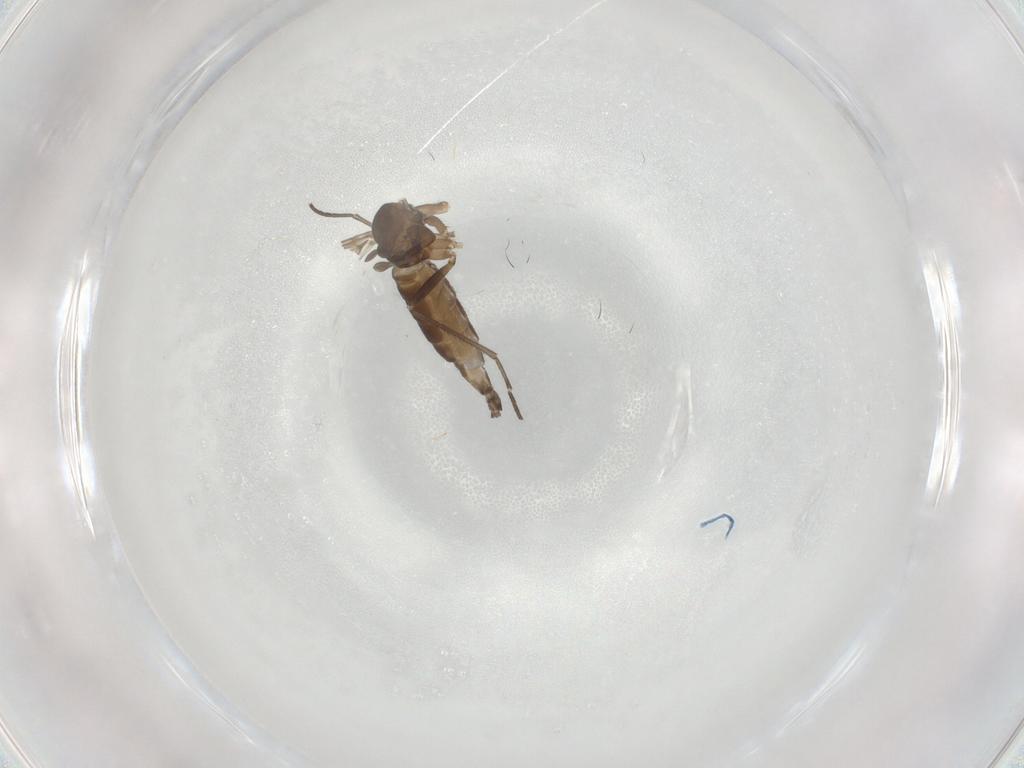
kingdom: Animalia
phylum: Arthropoda
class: Insecta
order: Diptera
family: Sciaridae
